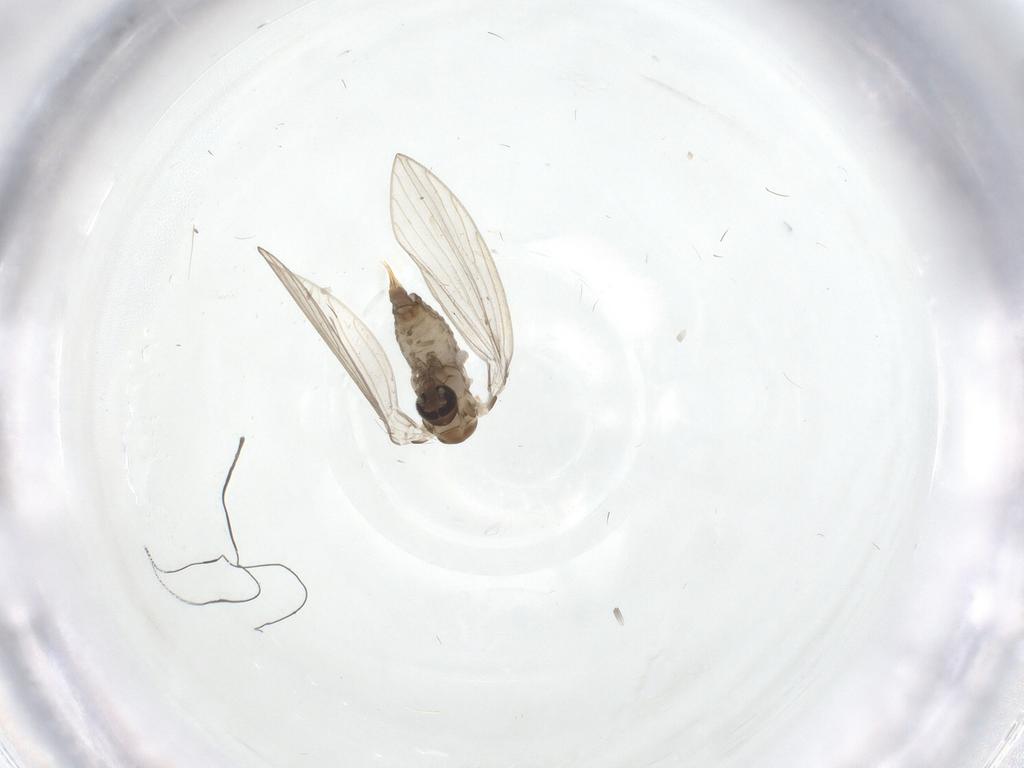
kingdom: Animalia
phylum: Arthropoda
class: Insecta
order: Diptera
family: Psychodidae
